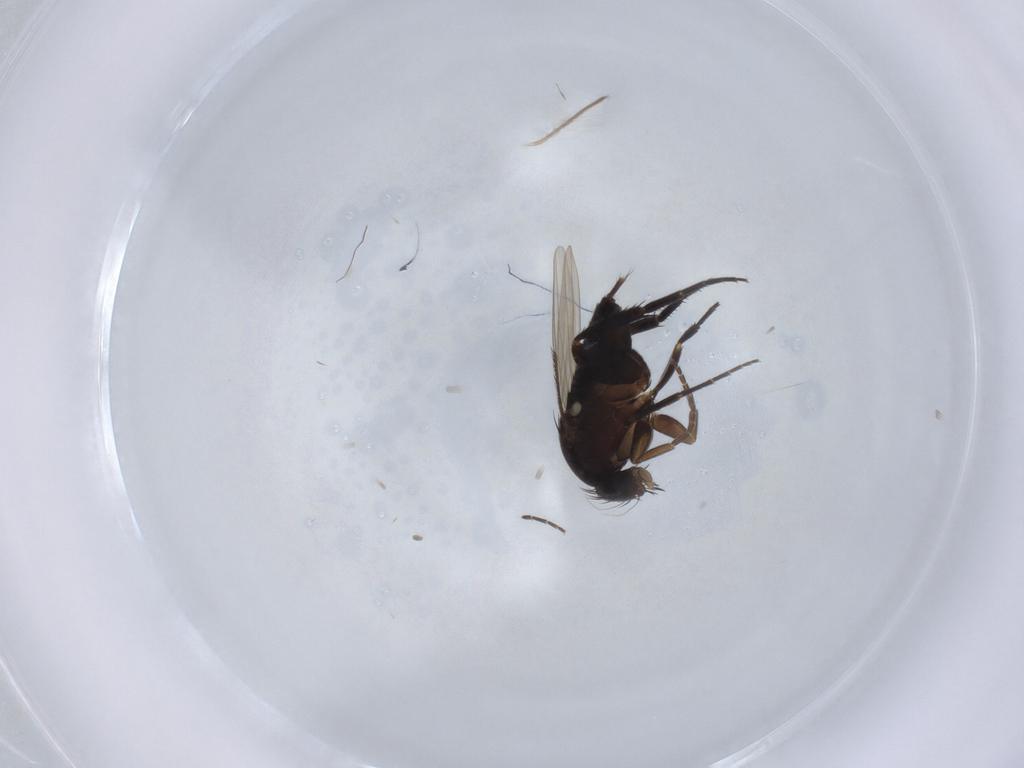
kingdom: Animalia
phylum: Arthropoda
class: Insecta
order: Diptera
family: Phoridae
